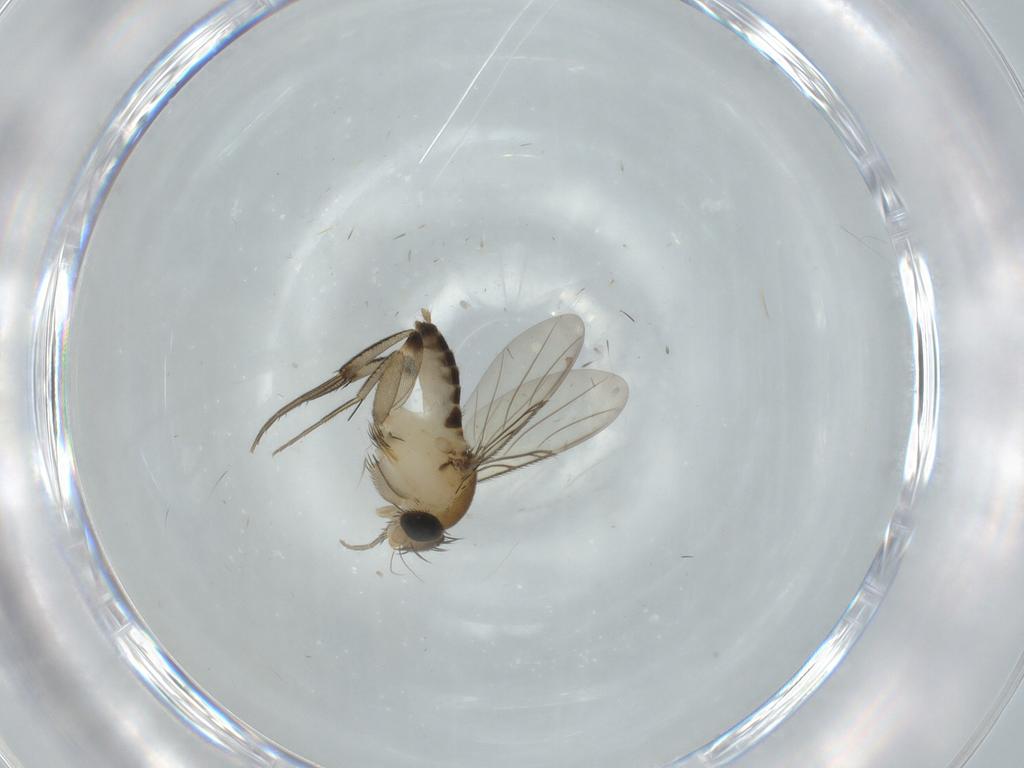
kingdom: Animalia
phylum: Arthropoda
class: Insecta
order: Diptera
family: Phoridae
